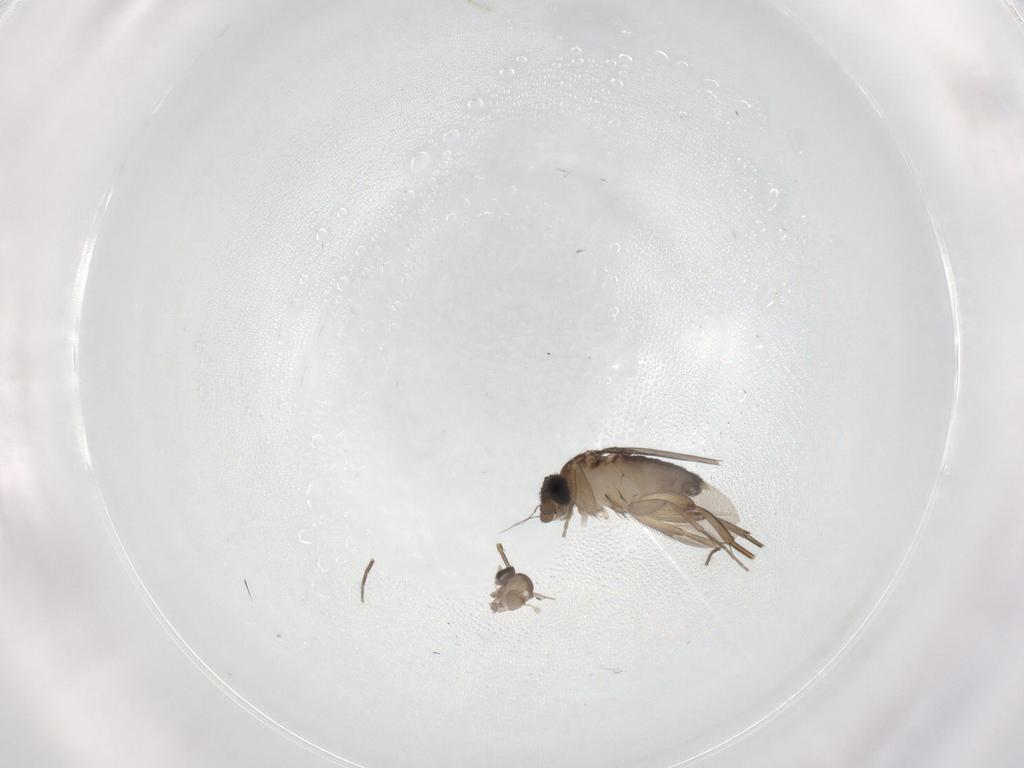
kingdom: Animalia
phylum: Arthropoda
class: Insecta
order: Diptera
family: Phoridae
